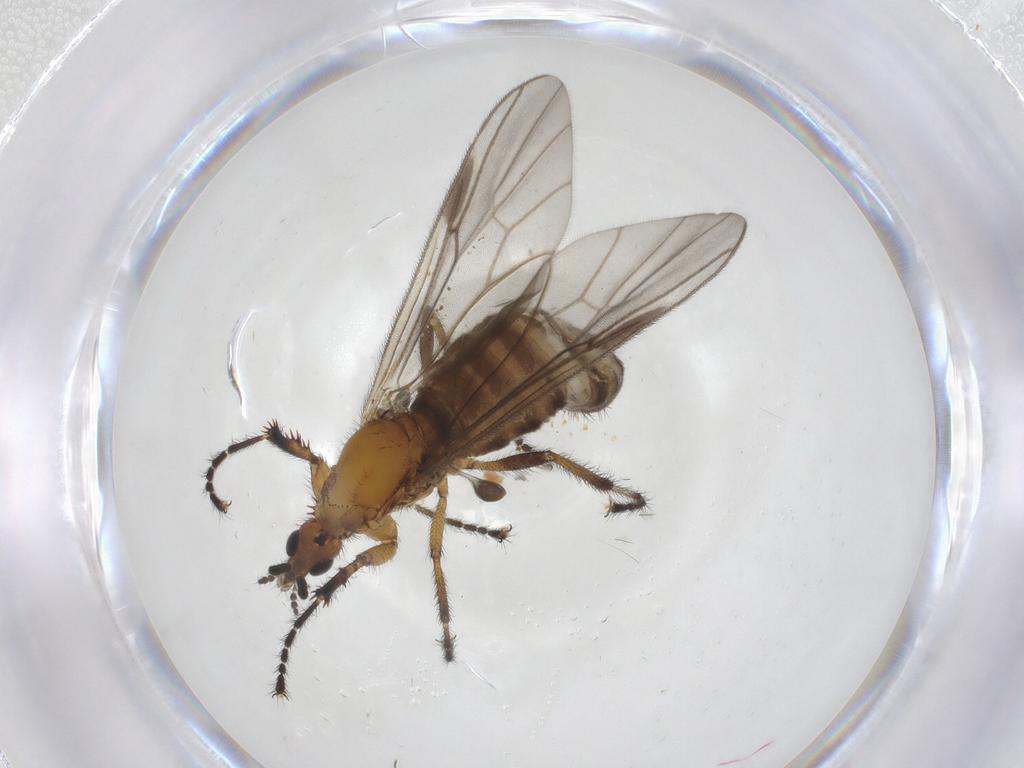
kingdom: Animalia
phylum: Arthropoda
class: Insecta
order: Diptera
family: Bibionidae
